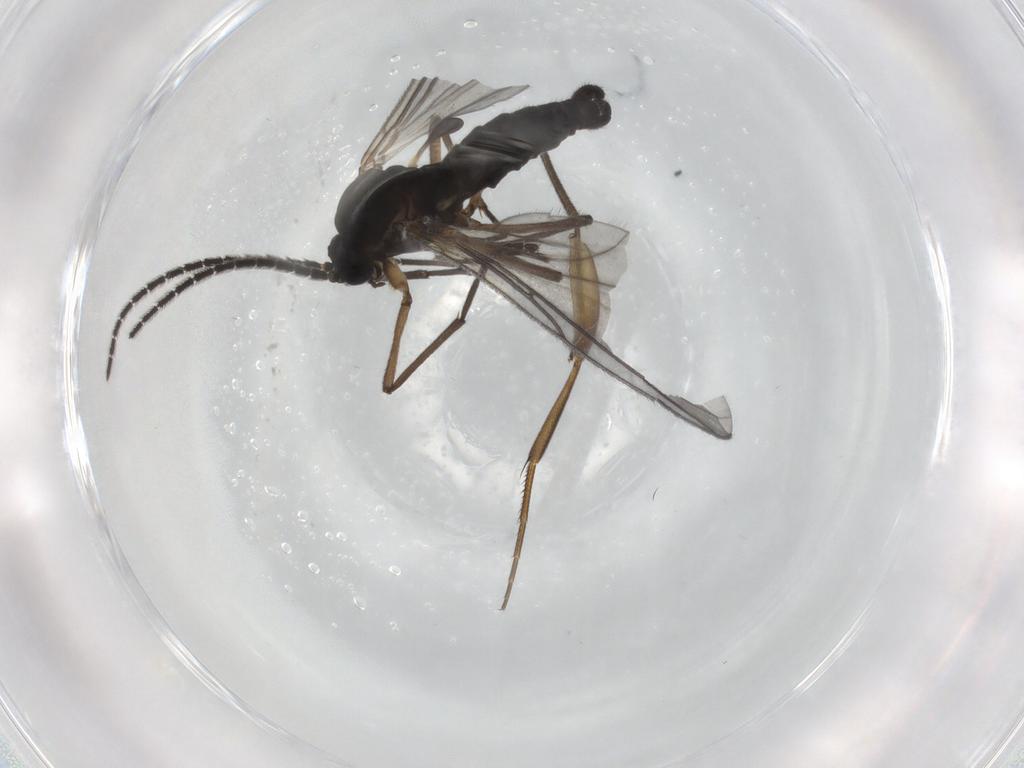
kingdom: Animalia
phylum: Arthropoda
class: Insecta
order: Diptera
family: Sciaridae
